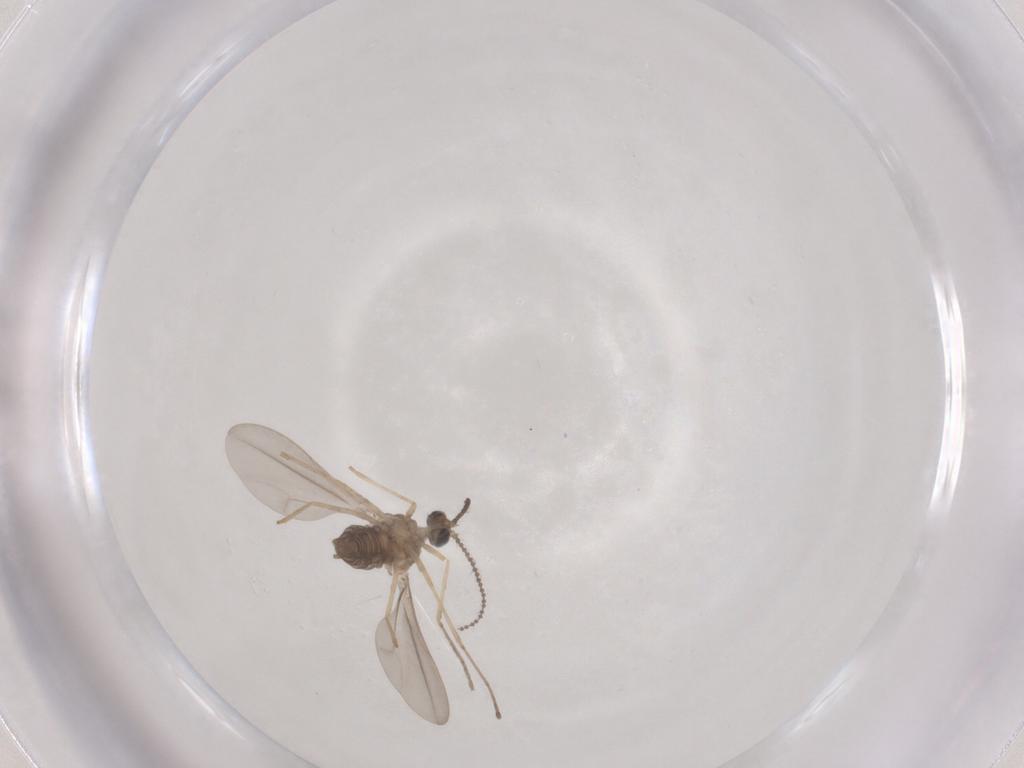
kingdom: Animalia
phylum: Arthropoda
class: Insecta
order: Diptera
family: Cecidomyiidae
